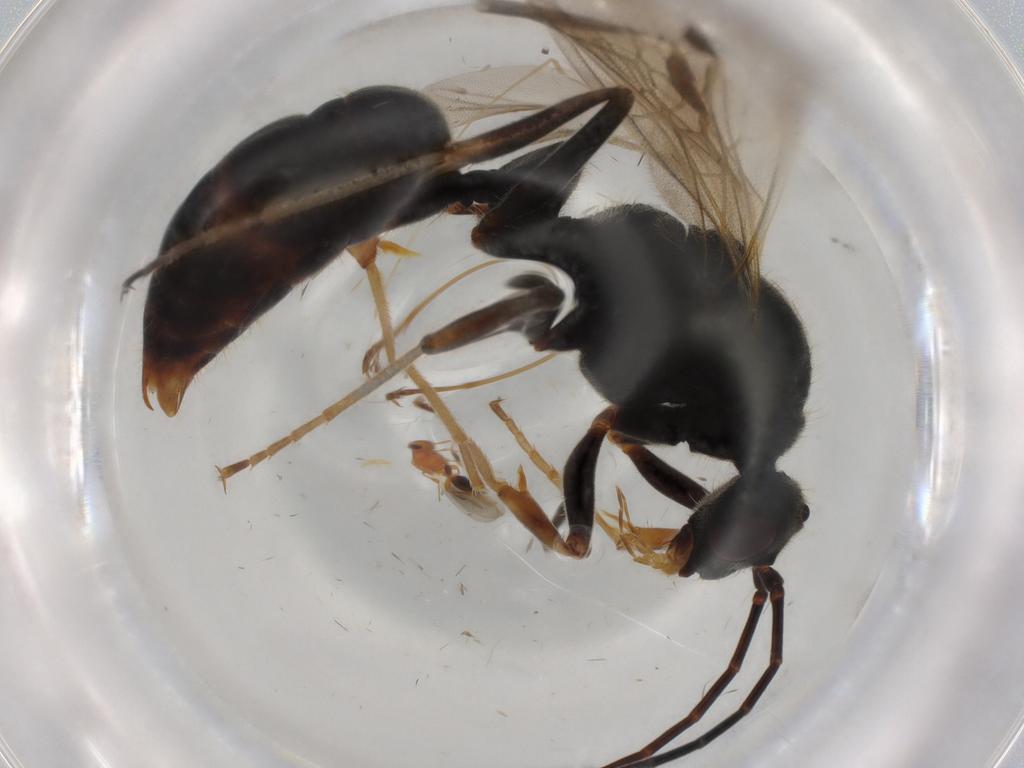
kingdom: Animalia
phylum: Arthropoda
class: Insecta
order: Hymenoptera
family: Formicidae
